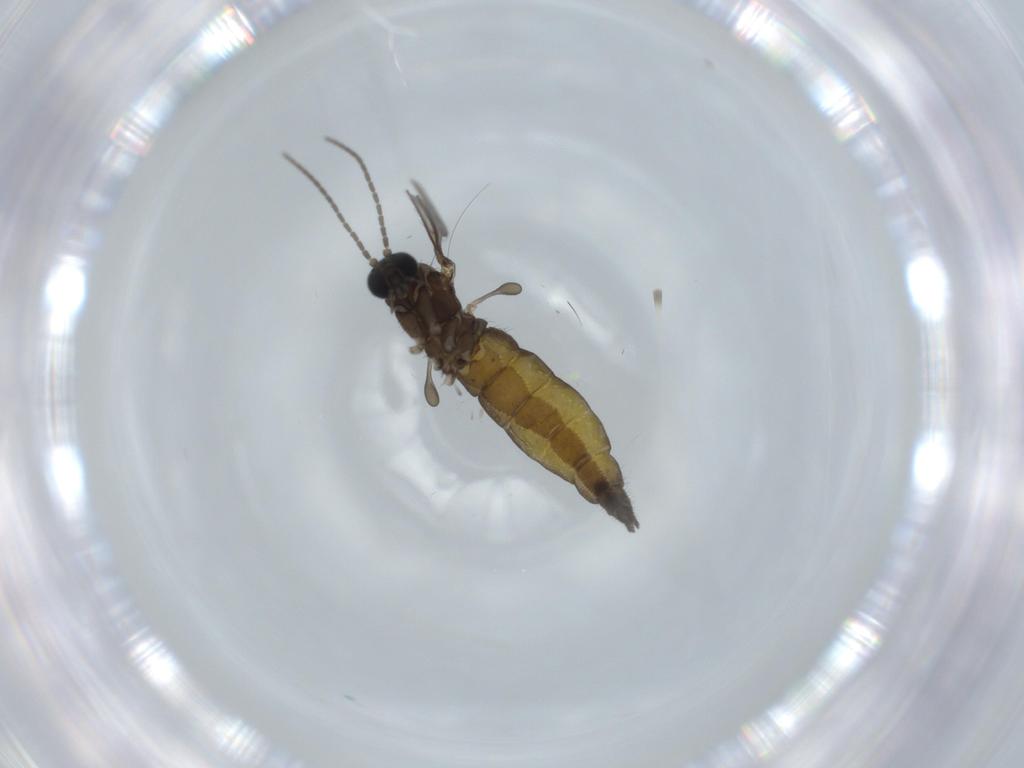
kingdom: Animalia
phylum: Arthropoda
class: Insecta
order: Diptera
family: Sciaridae
